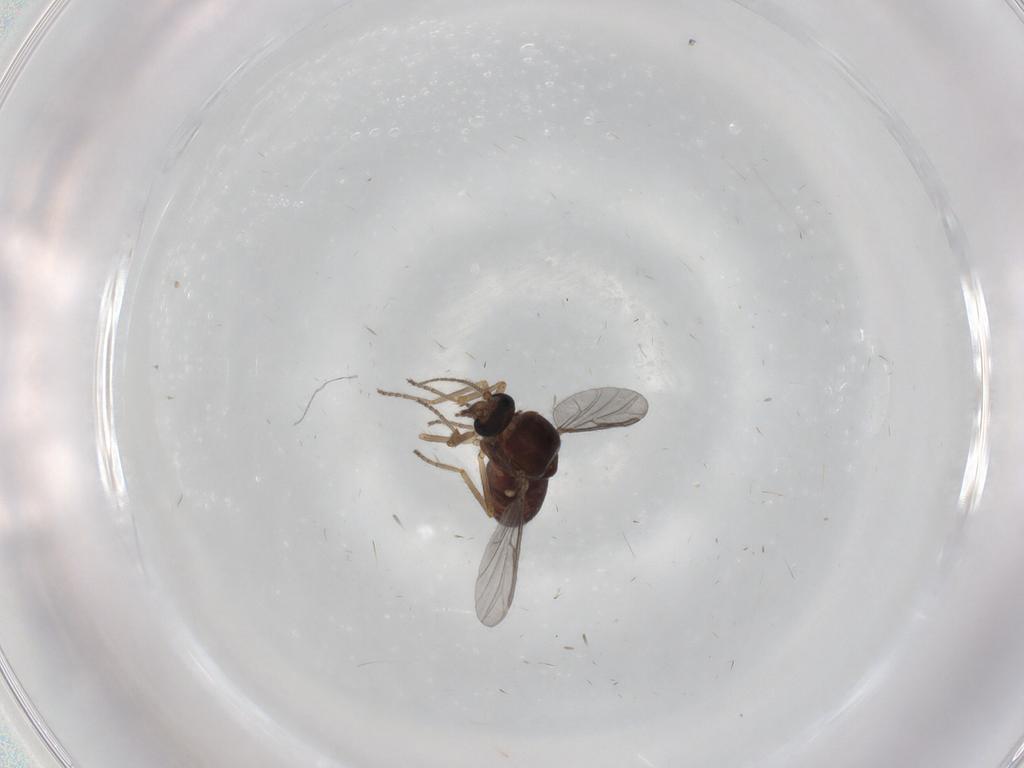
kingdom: Animalia
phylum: Arthropoda
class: Insecta
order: Diptera
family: Ceratopogonidae
